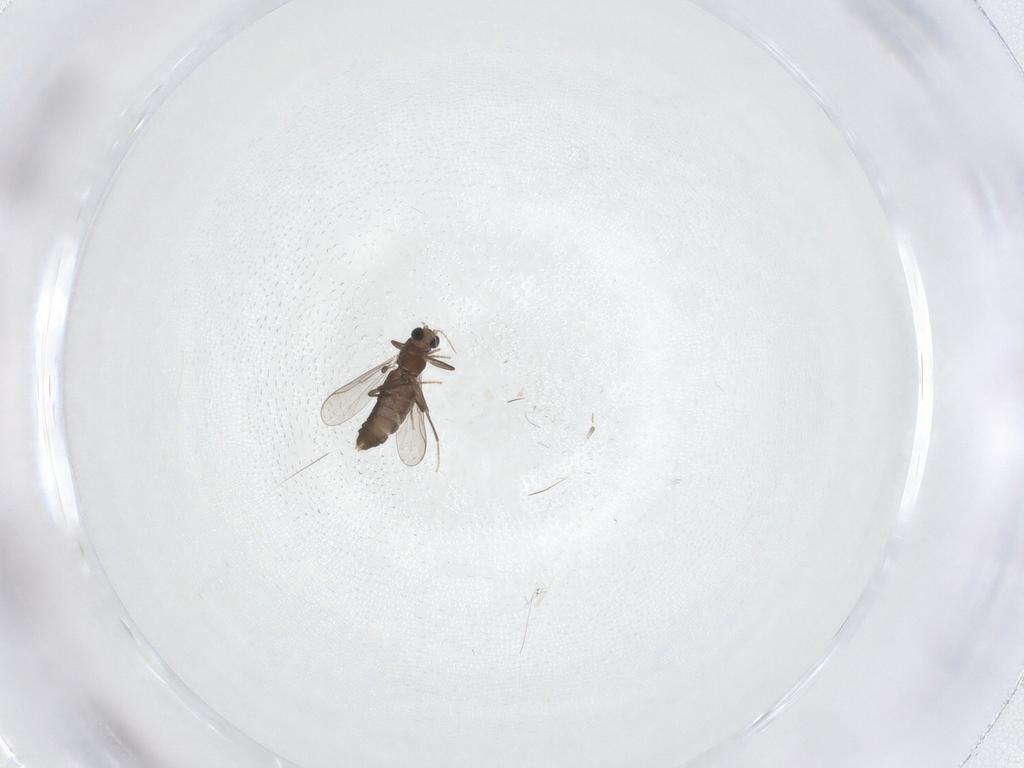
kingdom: Animalia
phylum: Arthropoda
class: Insecta
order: Diptera
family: Chironomidae
